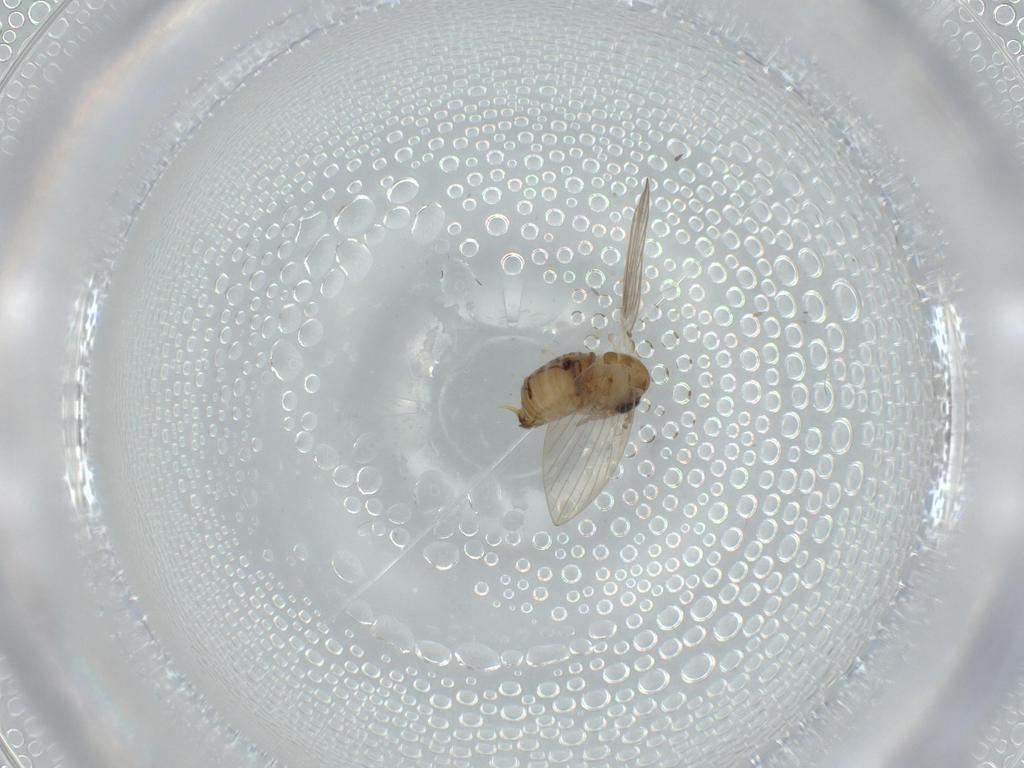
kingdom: Animalia
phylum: Arthropoda
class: Insecta
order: Diptera
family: Psychodidae
